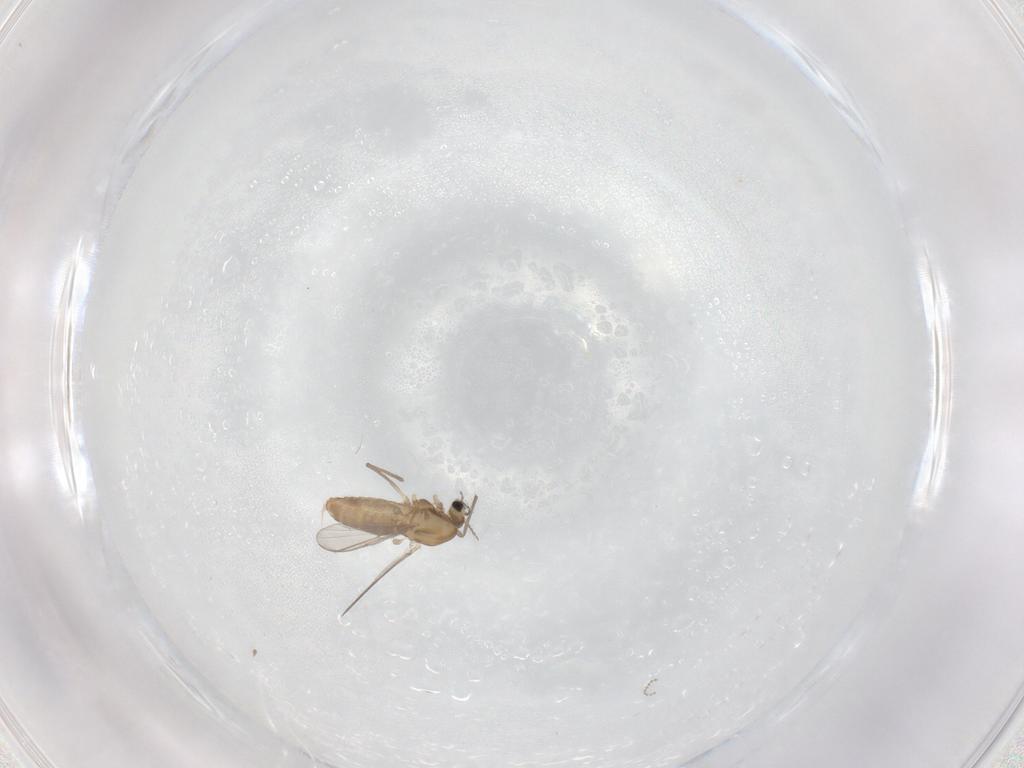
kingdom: Animalia
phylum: Arthropoda
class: Insecta
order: Diptera
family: Chironomidae
